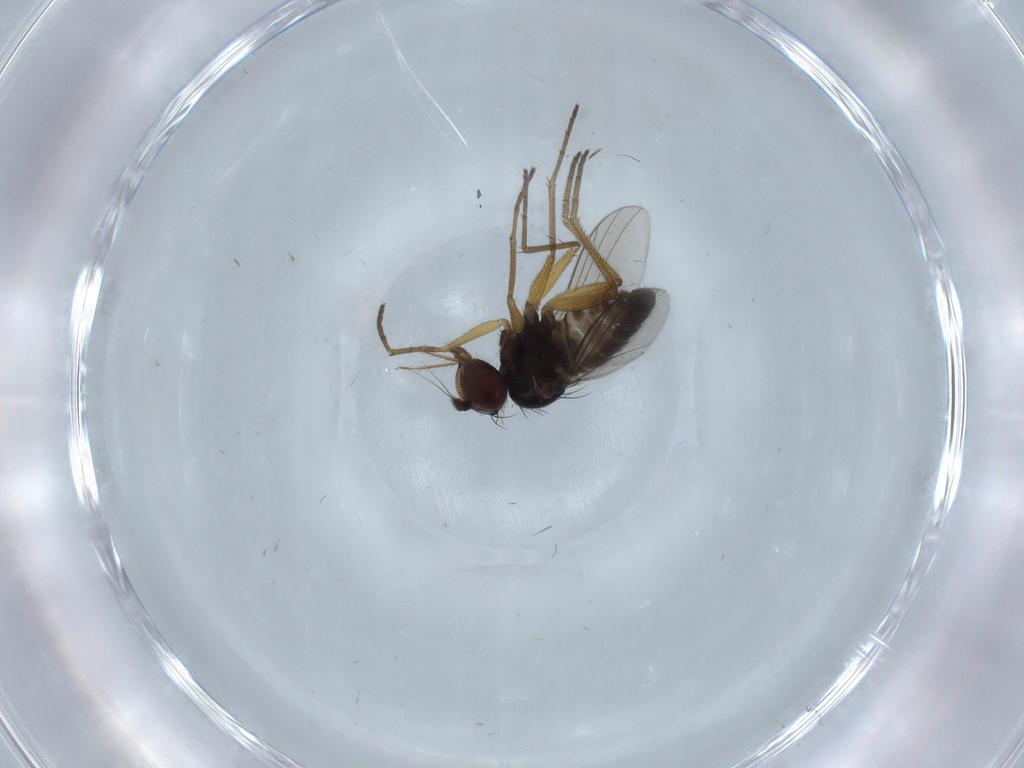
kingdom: Animalia
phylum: Arthropoda
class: Insecta
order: Diptera
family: Dolichopodidae
